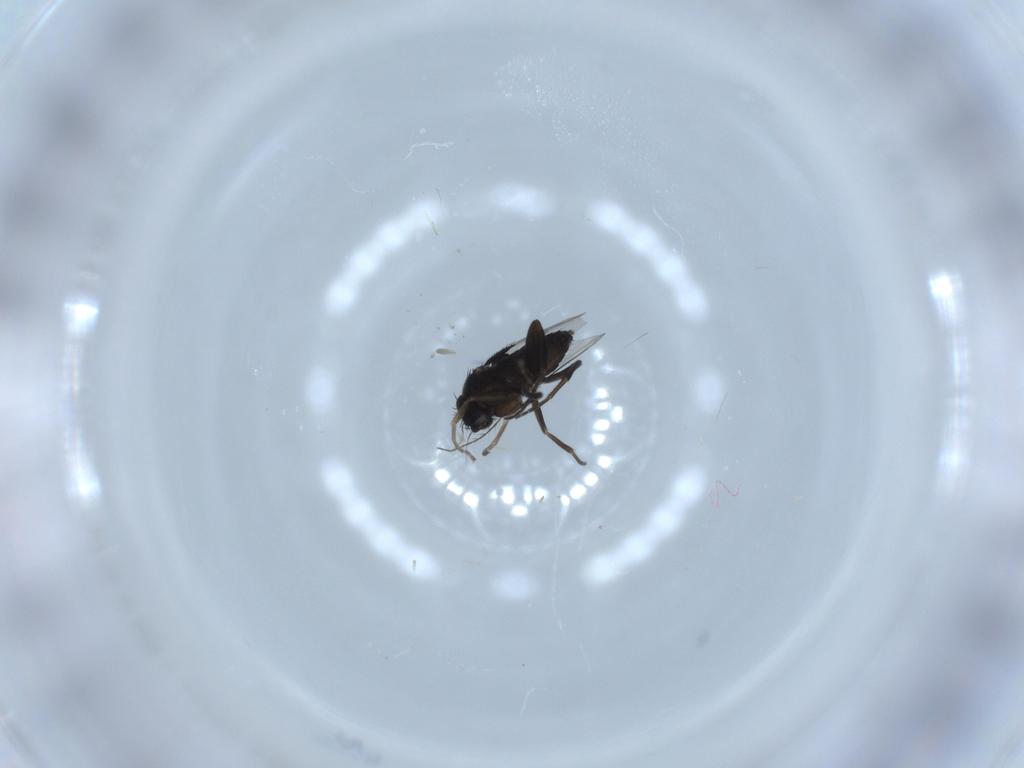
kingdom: Animalia
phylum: Arthropoda
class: Insecta
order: Diptera
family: Phoridae
